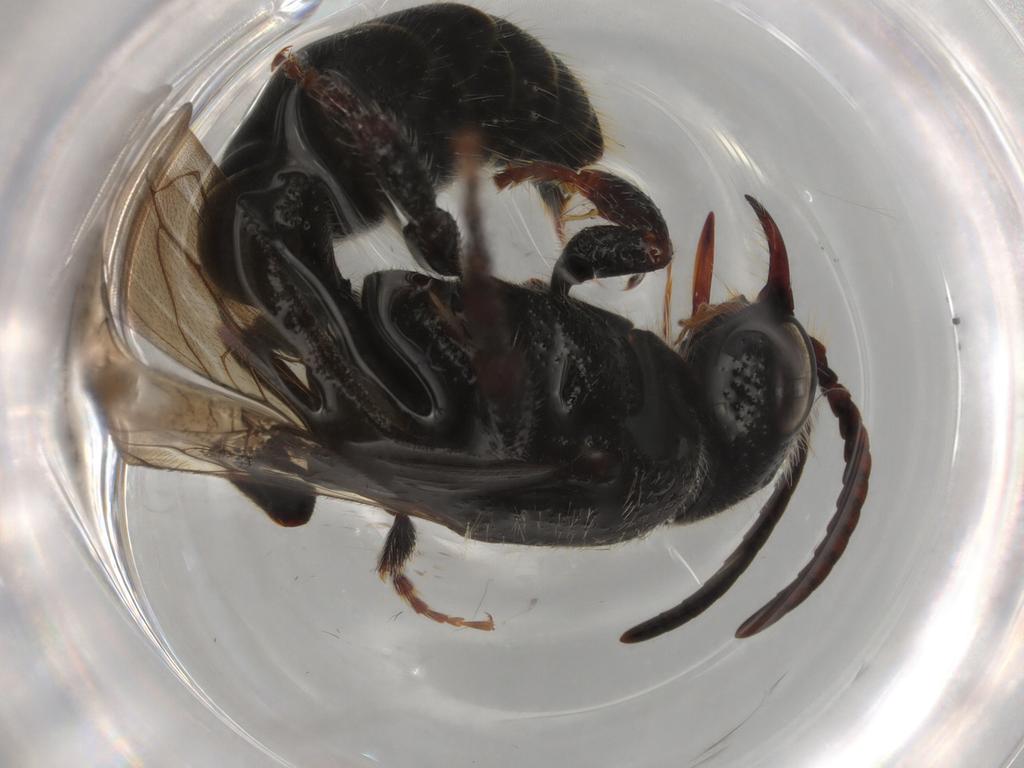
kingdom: Animalia
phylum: Arthropoda
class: Insecta
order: Hymenoptera
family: Tiphiidae
